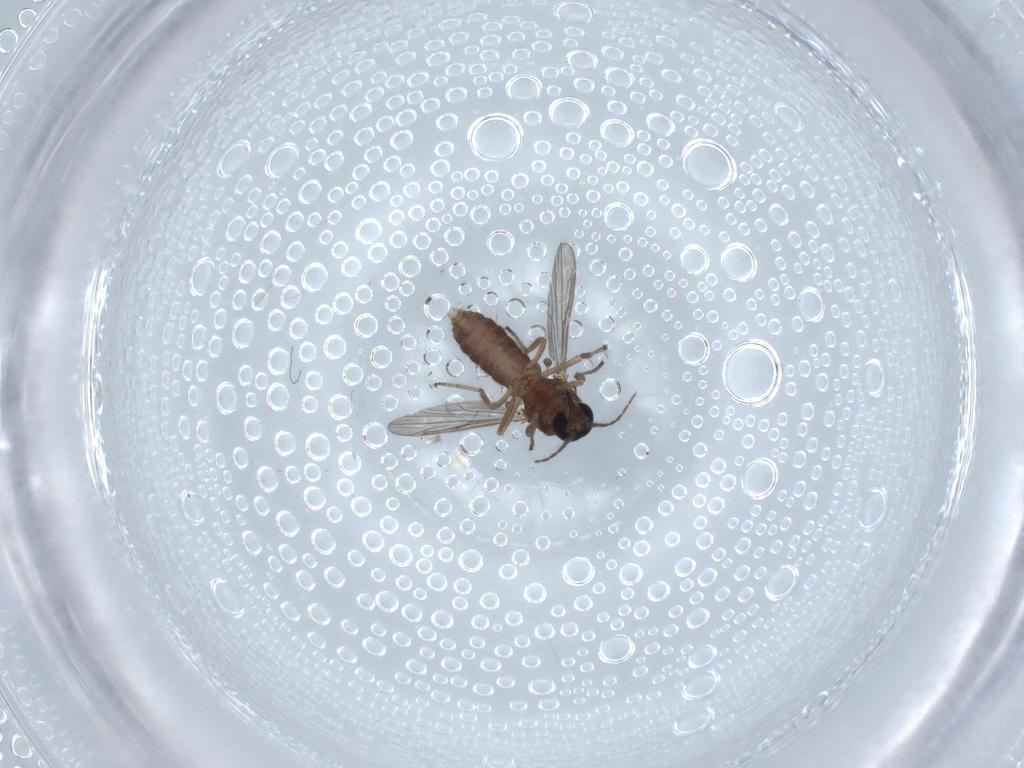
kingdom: Animalia
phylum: Arthropoda
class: Insecta
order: Diptera
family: Ceratopogonidae
